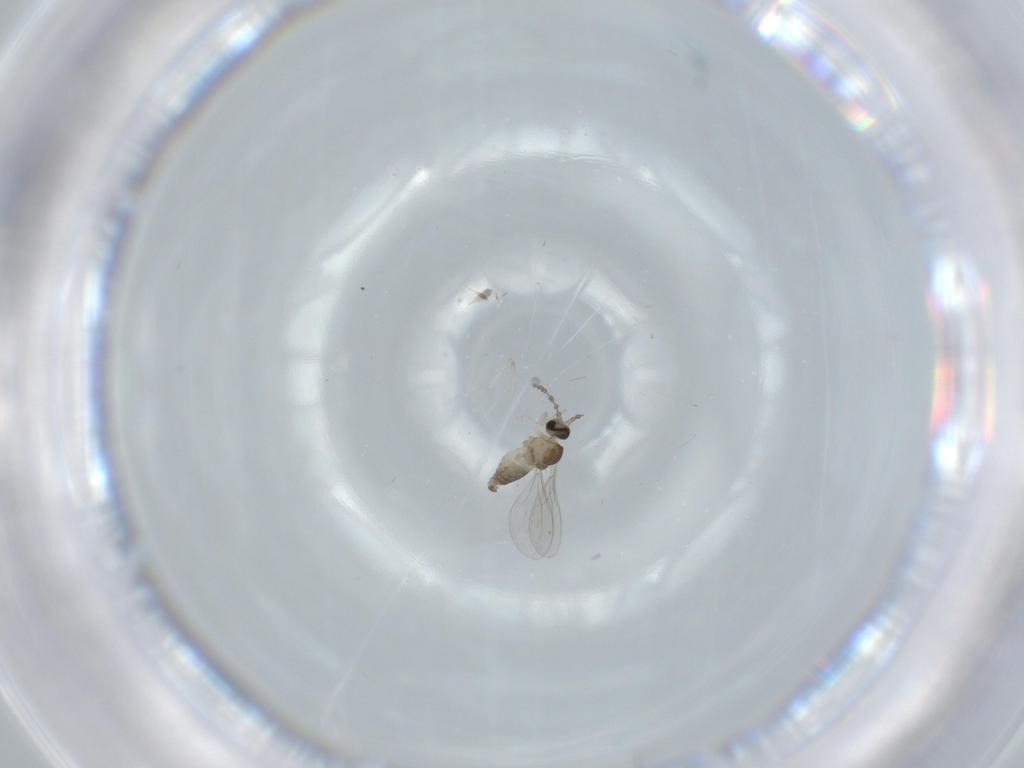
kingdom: Animalia
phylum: Arthropoda
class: Insecta
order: Diptera
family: Cecidomyiidae
